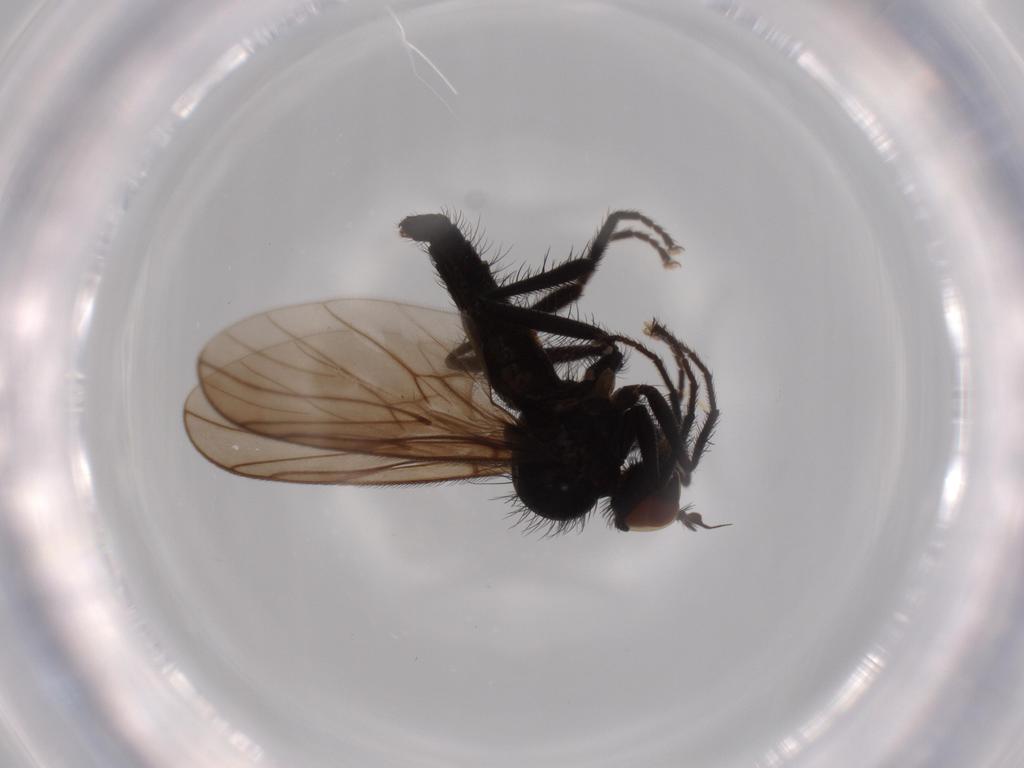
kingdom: Animalia
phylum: Arthropoda
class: Insecta
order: Diptera
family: Chloropidae
